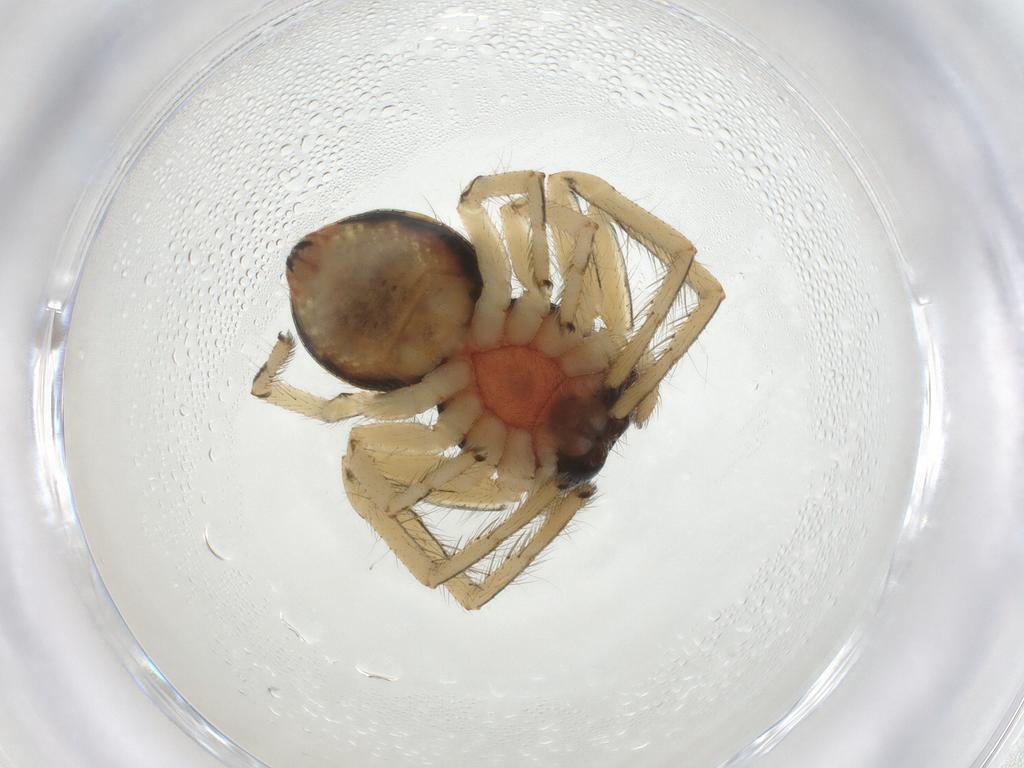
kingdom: Animalia
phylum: Arthropoda
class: Arachnida
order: Araneae
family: Thomisidae
